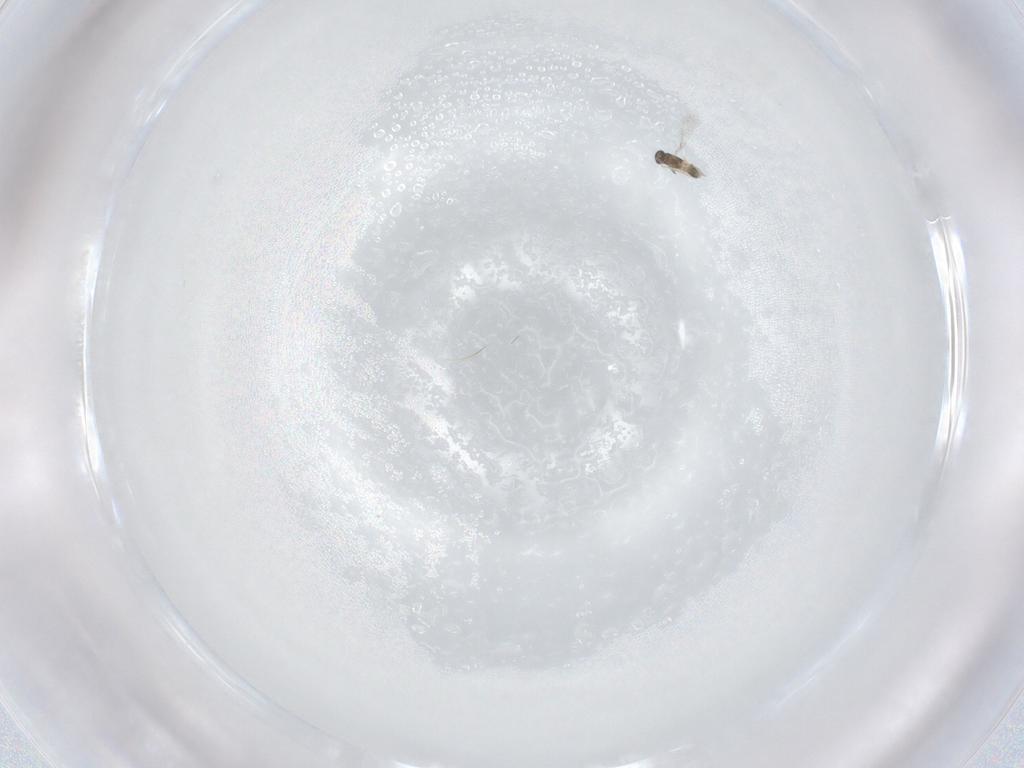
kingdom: Animalia
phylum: Arthropoda
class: Insecta
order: Hymenoptera
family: Mymaridae
